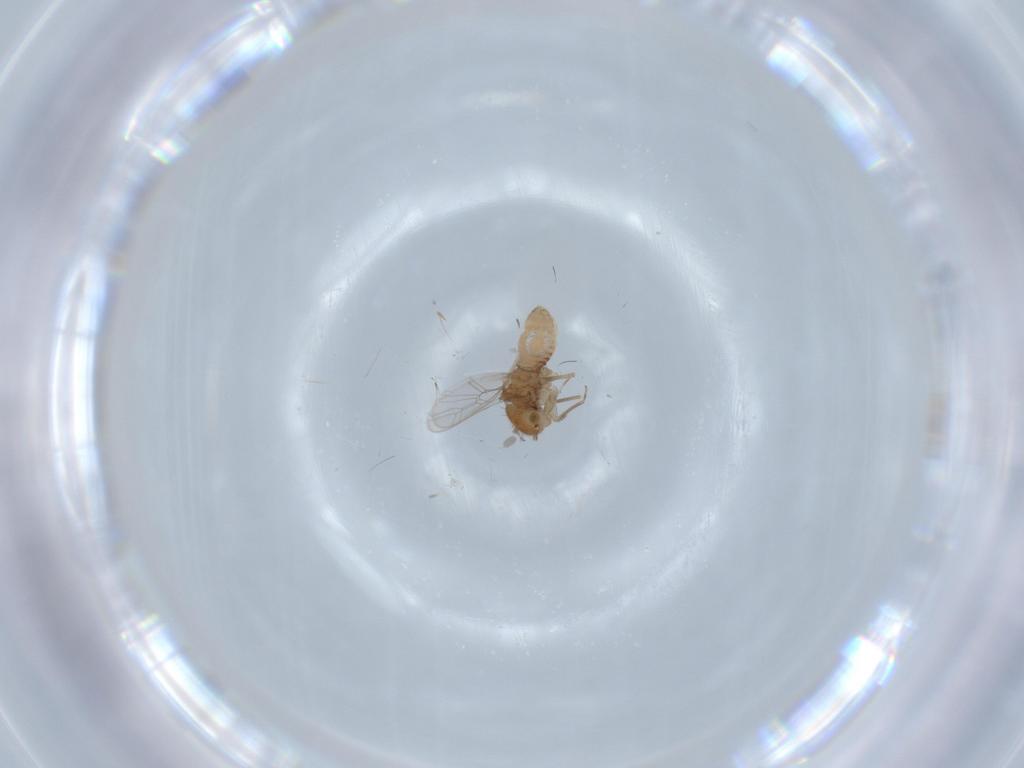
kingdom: Animalia
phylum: Arthropoda
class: Insecta
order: Psocodea
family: Ectopsocidae
